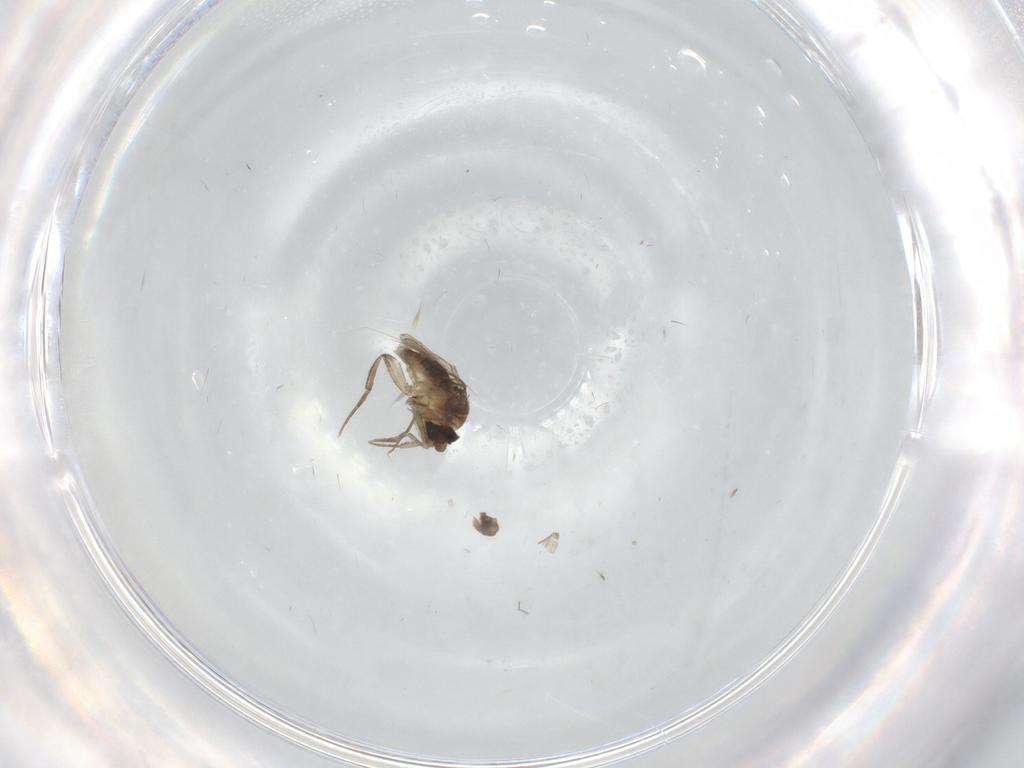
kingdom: Animalia
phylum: Arthropoda
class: Insecta
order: Diptera
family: Phoridae
